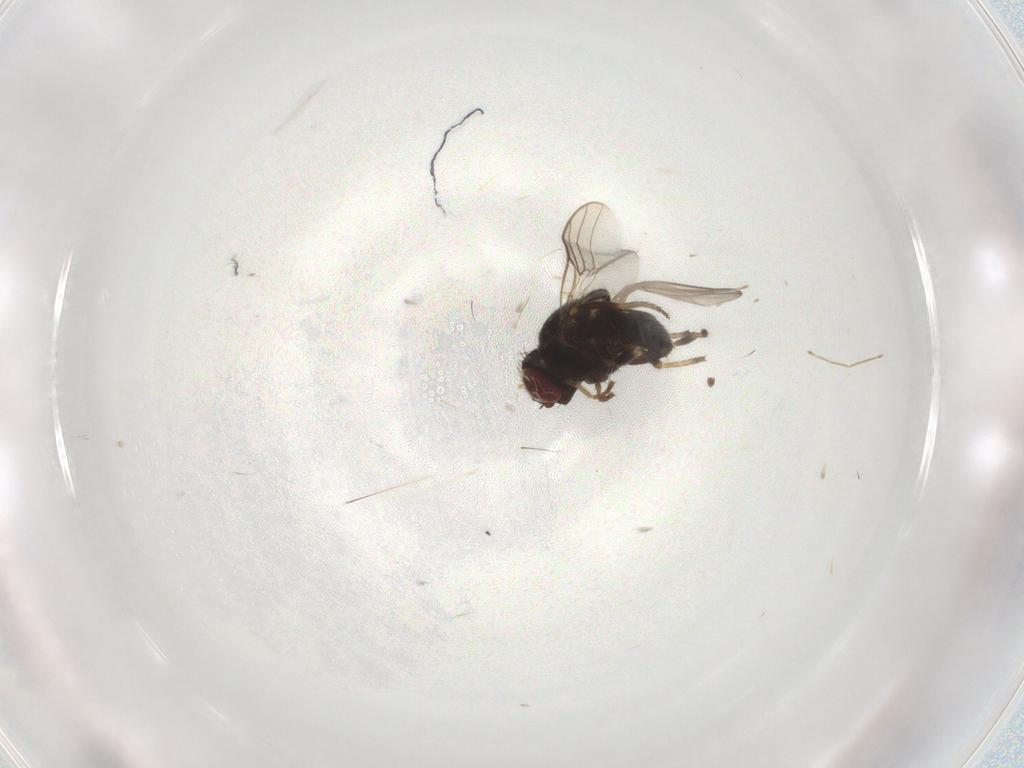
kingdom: Animalia
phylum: Arthropoda
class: Insecta
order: Diptera
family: Chloropidae
